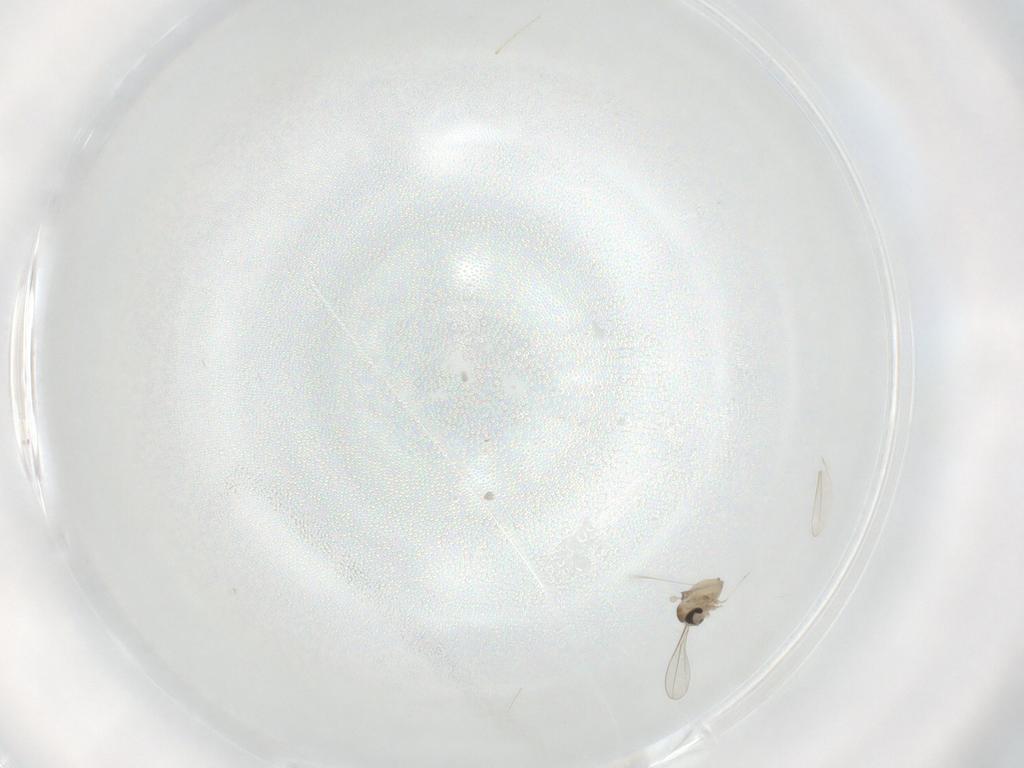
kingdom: Animalia
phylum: Arthropoda
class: Insecta
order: Diptera
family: Cecidomyiidae
